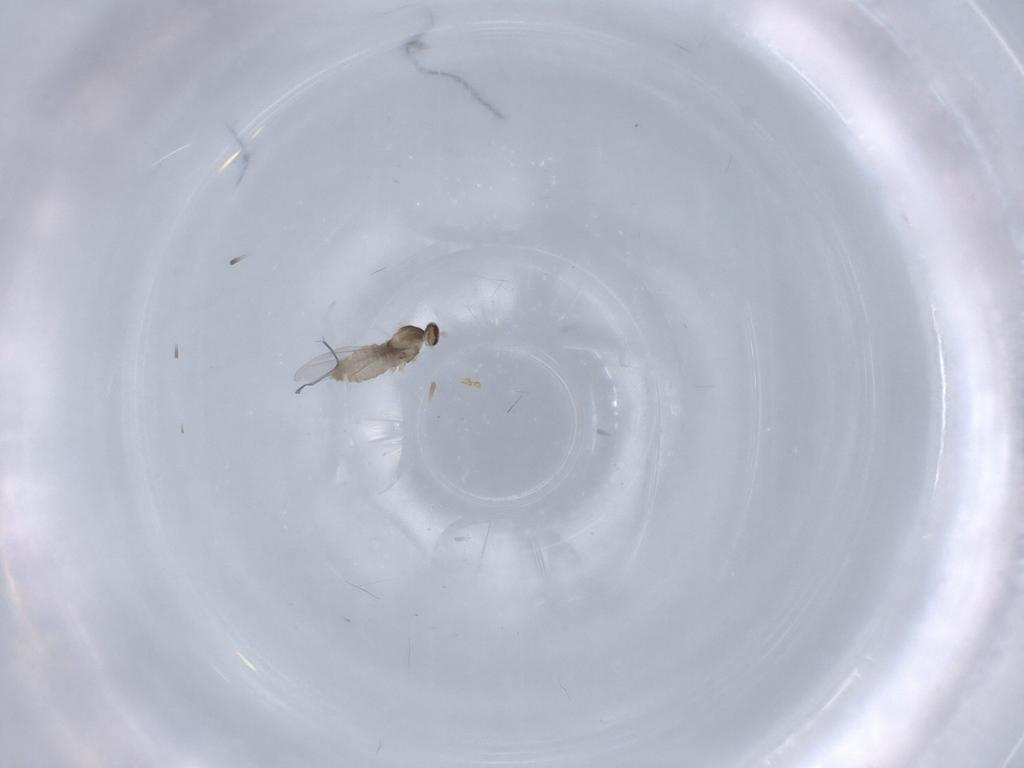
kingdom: Animalia
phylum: Arthropoda
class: Insecta
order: Diptera
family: Cecidomyiidae
